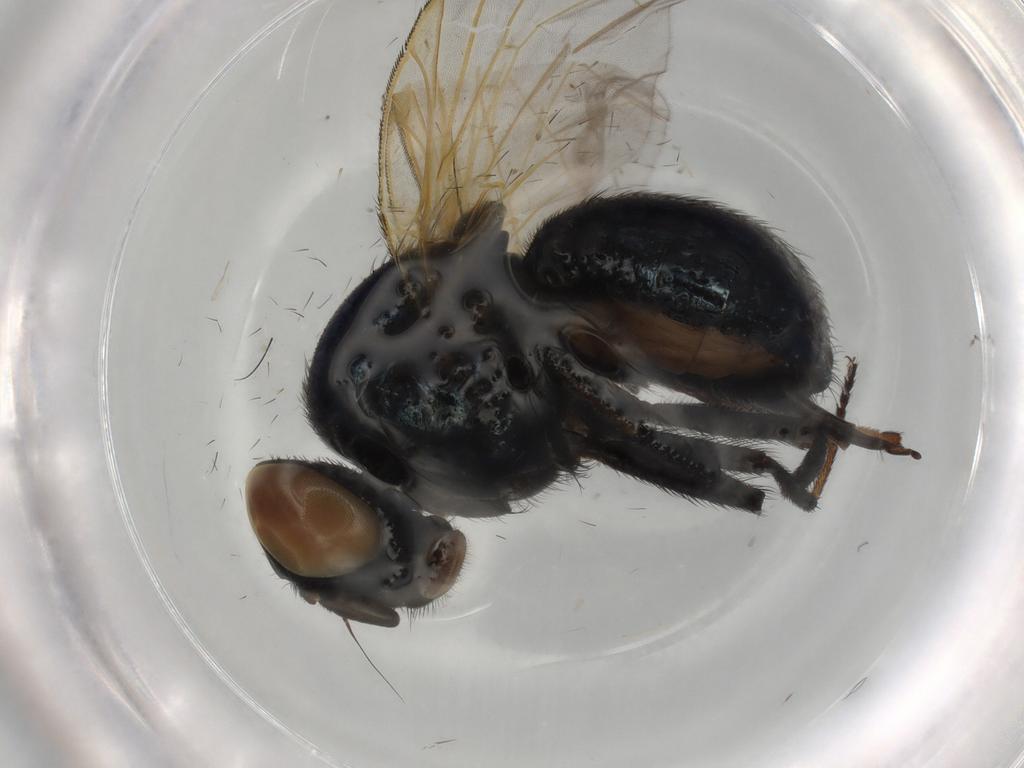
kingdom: Animalia
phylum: Arthropoda
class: Insecta
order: Diptera
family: Lonchaeidae
